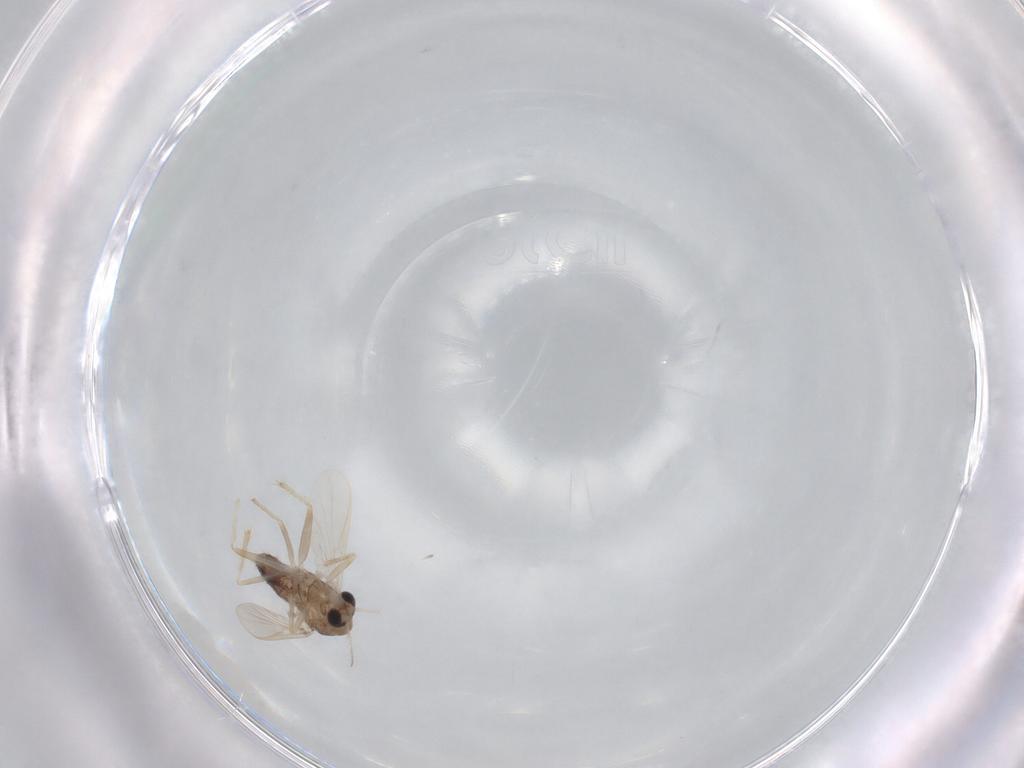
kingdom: Animalia
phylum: Arthropoda
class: Insecta
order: Diptera
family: Chironomidae
